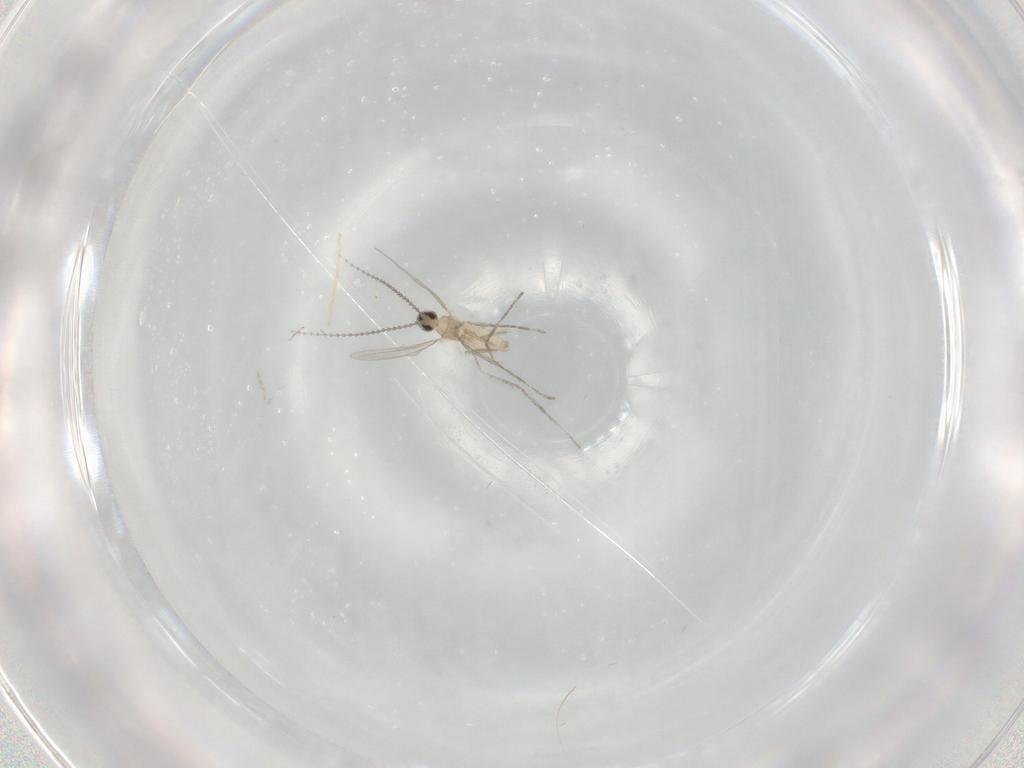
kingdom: Animalia
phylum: Arthropoda
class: Insecta
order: Diptera
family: Cecidomyiidae
